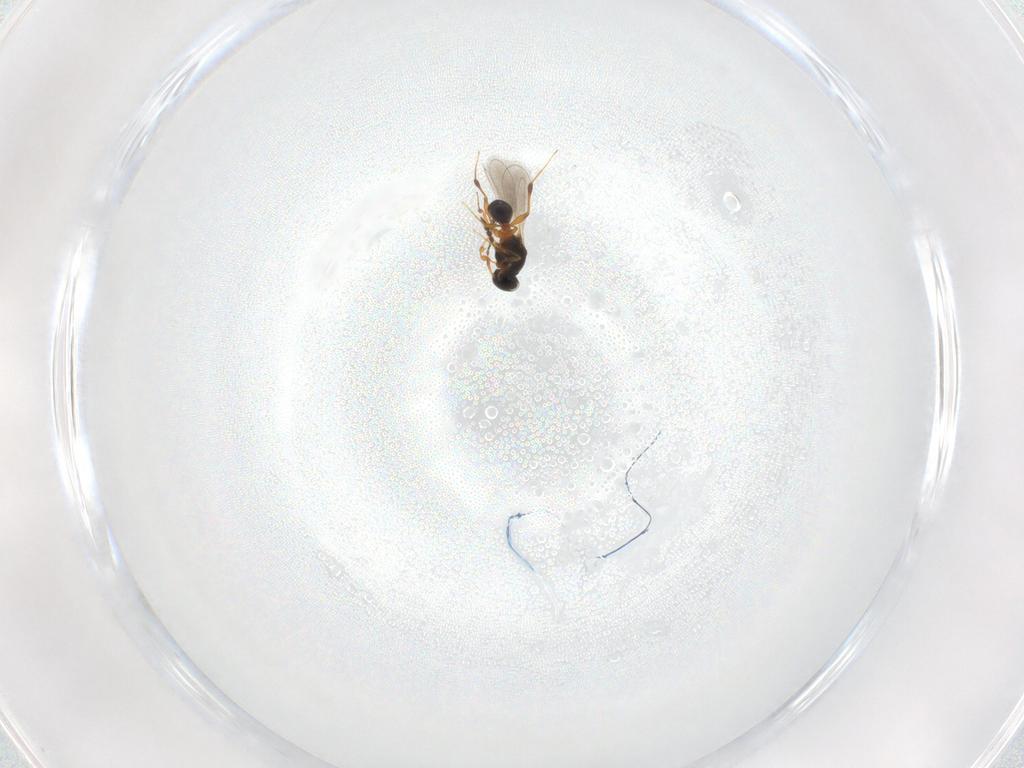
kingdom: Animalia
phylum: Arthropoda
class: Insecta
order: Hymenoptera
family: Platygastridae
